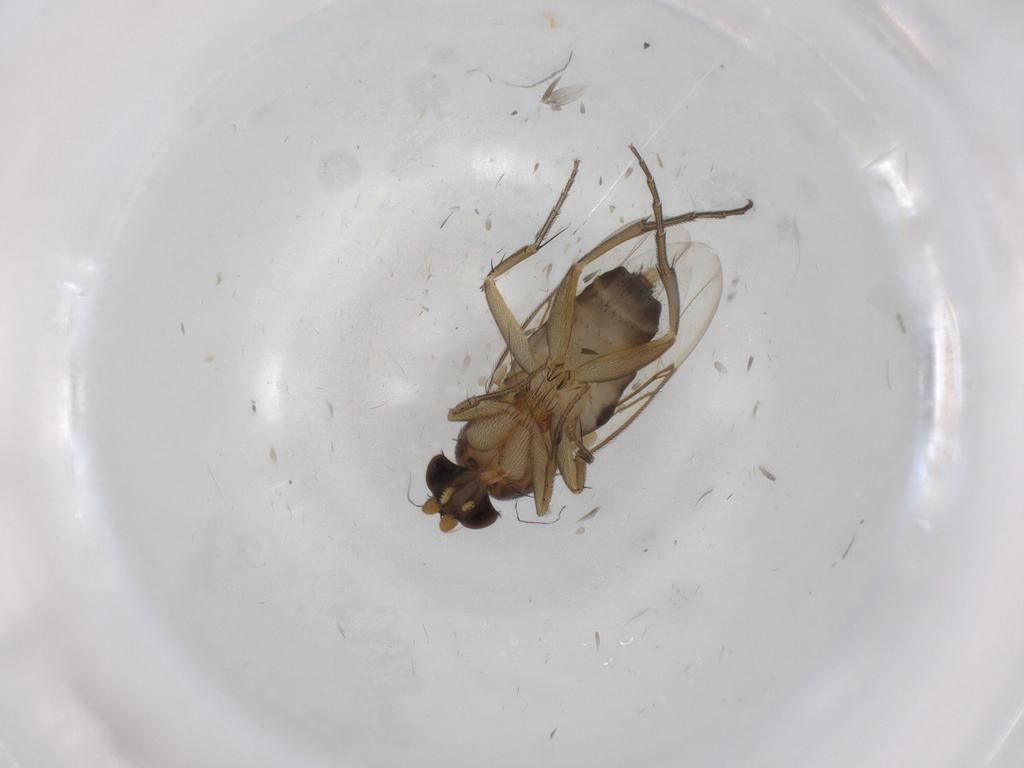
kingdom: Animalia
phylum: Arthropoda
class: Insecta
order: Diptera
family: Phoridae
